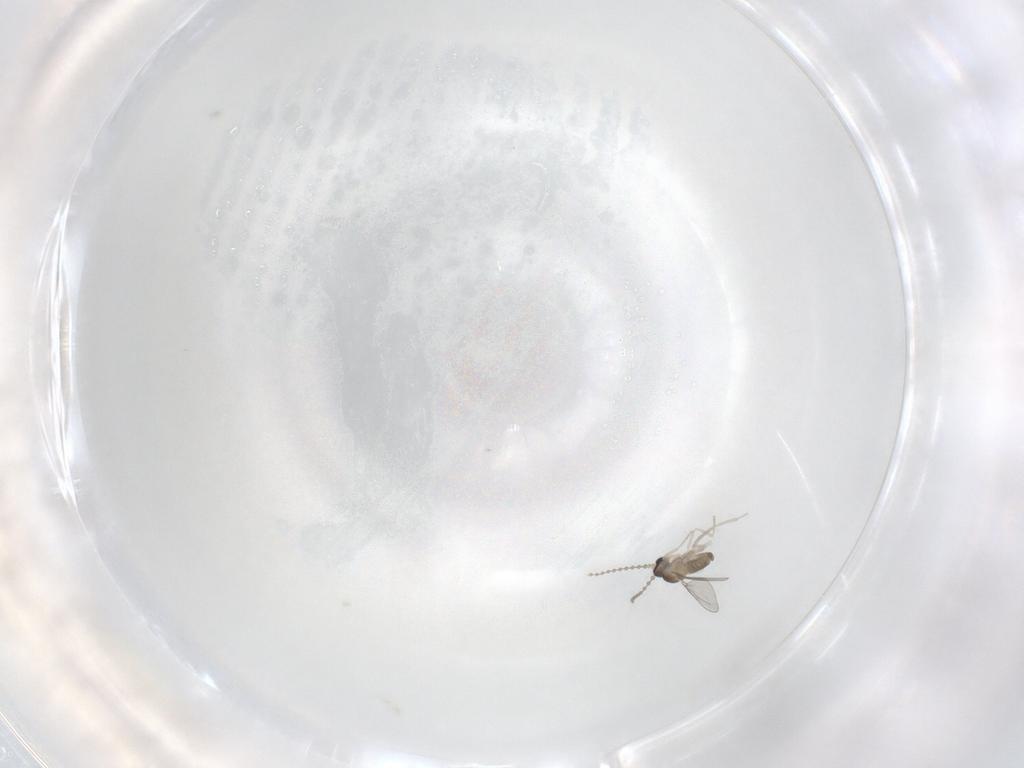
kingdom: Animalia
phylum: Arthropoda
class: Insecta
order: Diptera
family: Cecidomyiidae
